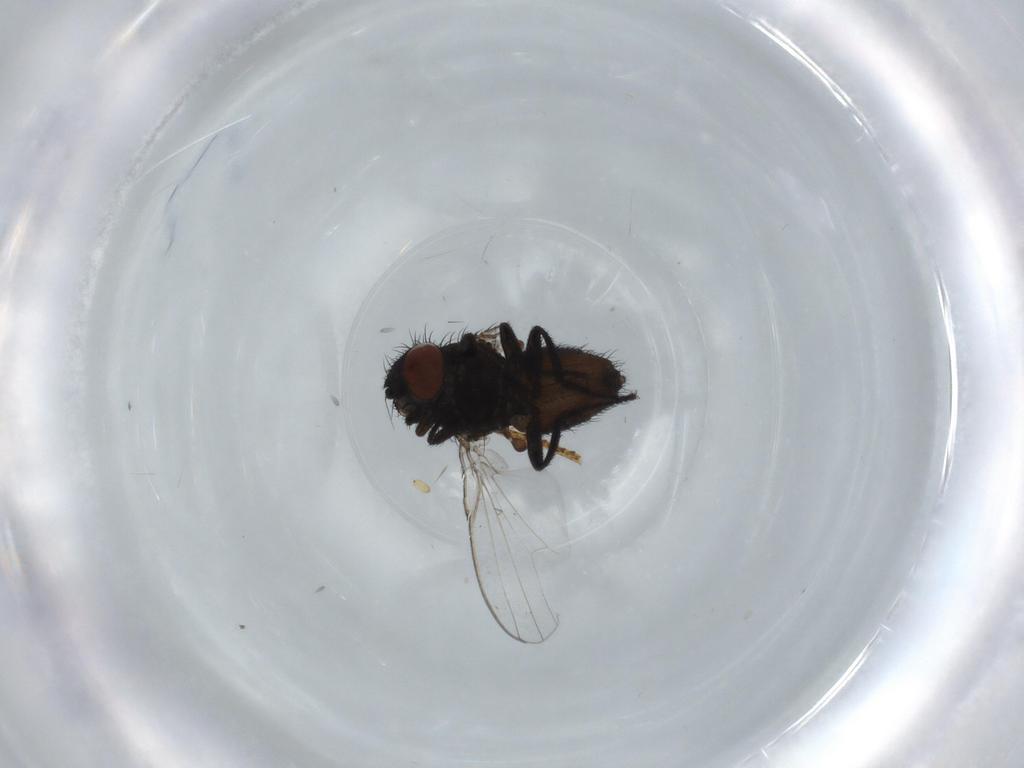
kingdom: Animalia
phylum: Arthropoda
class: Insecta
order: Diptera
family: Milichiidae
